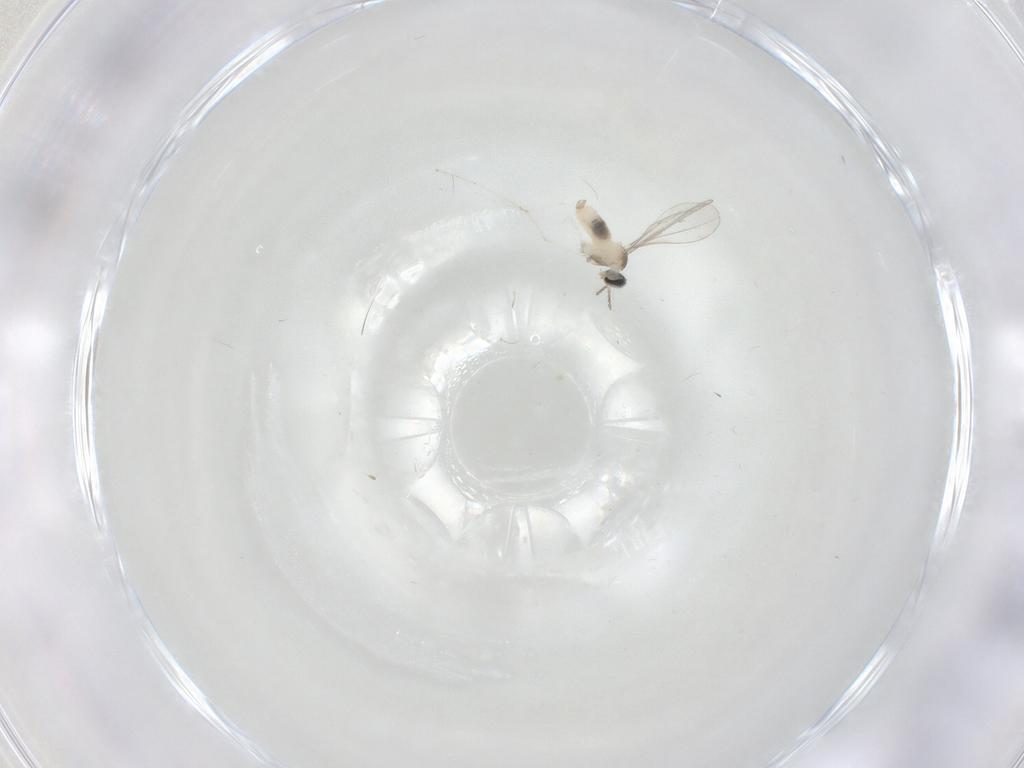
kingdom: Animalia
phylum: Arthropoda
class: Insecta
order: Diptera
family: Cecidomyiidae
